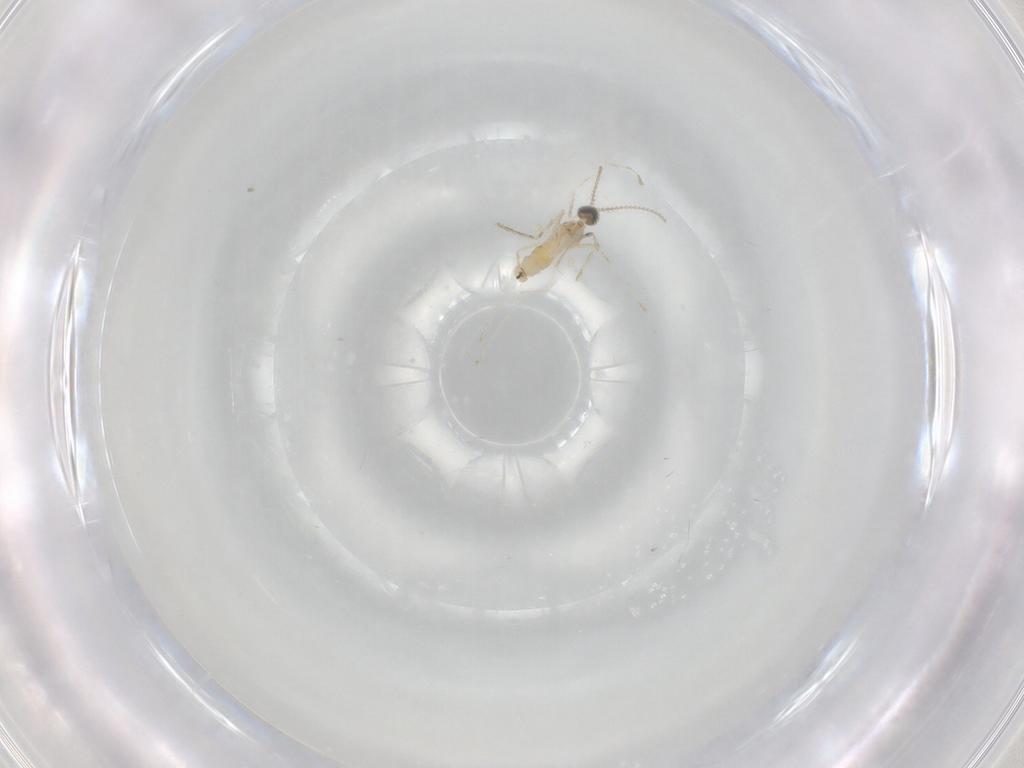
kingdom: Animalia
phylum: Arthropoda
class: Insecta
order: Diptera
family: Cecidomyiidae
